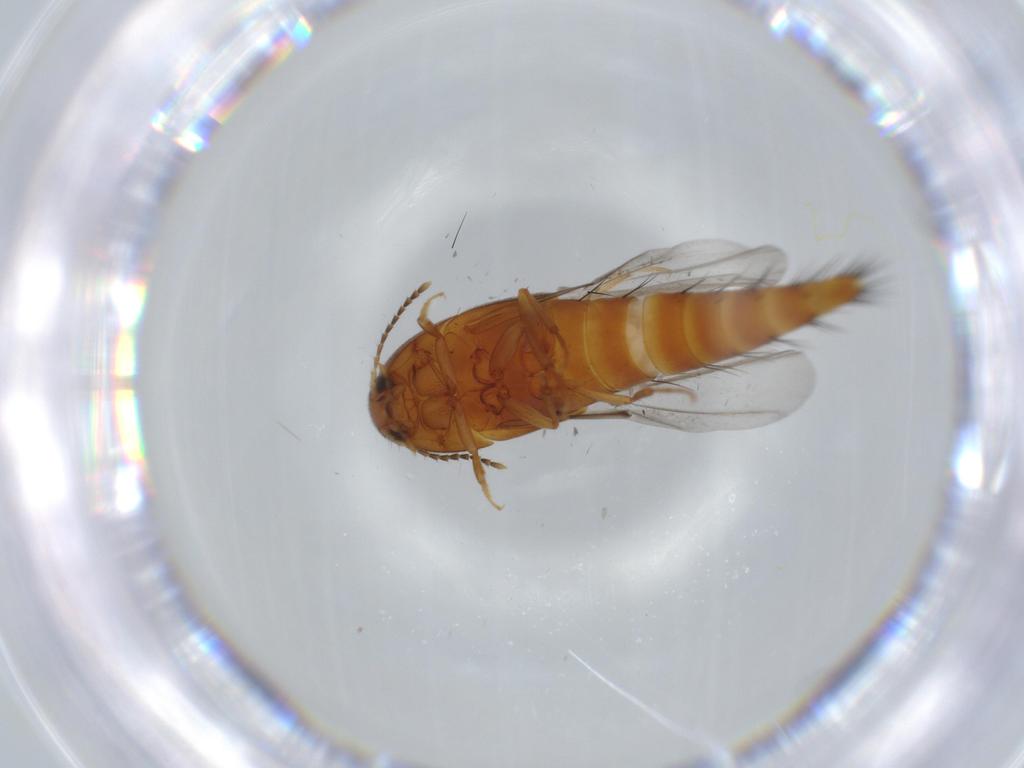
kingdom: Animalia
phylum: Arthropoda
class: Insecta
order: Coleoptera
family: Staphylinidae
